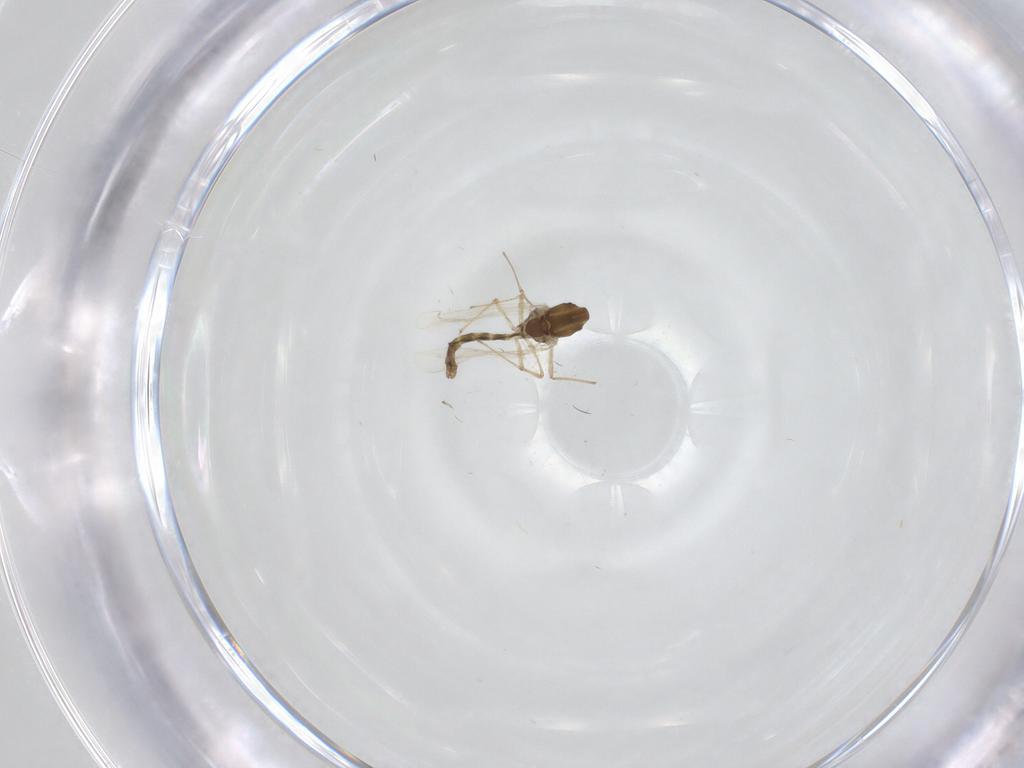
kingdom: Animalia
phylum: Arthropoda
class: Insecta
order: Diptera
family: Chironomidae
